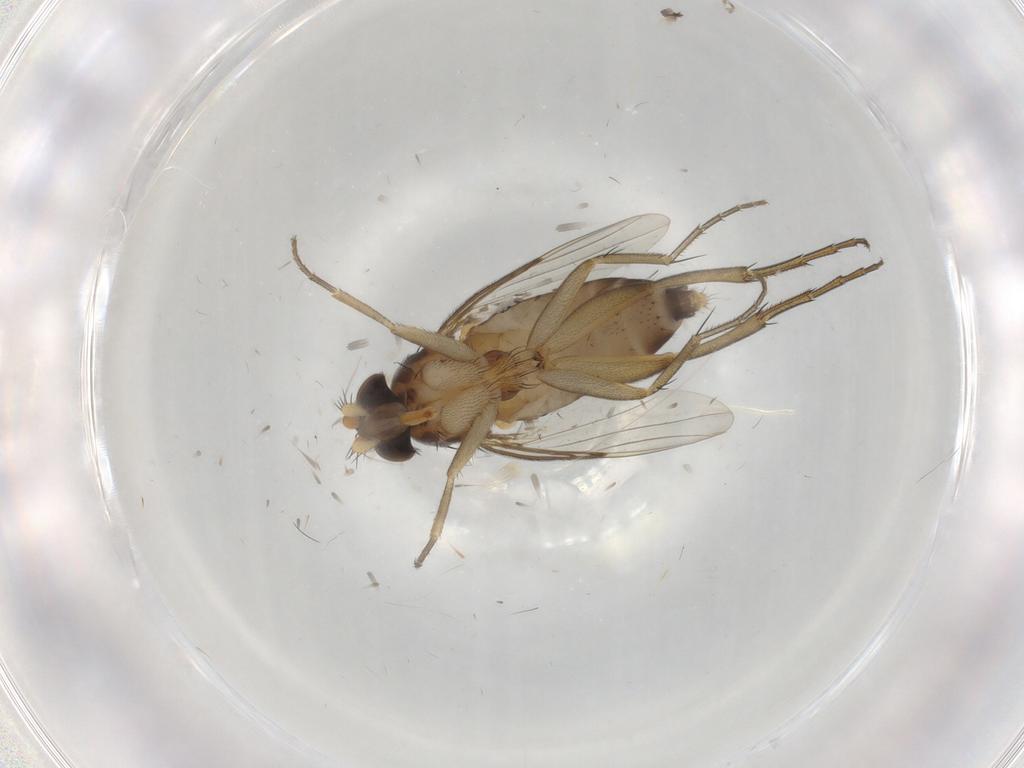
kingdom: Animalia
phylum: Arthropoda
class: Insecta
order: Diptera
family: Phoridae
